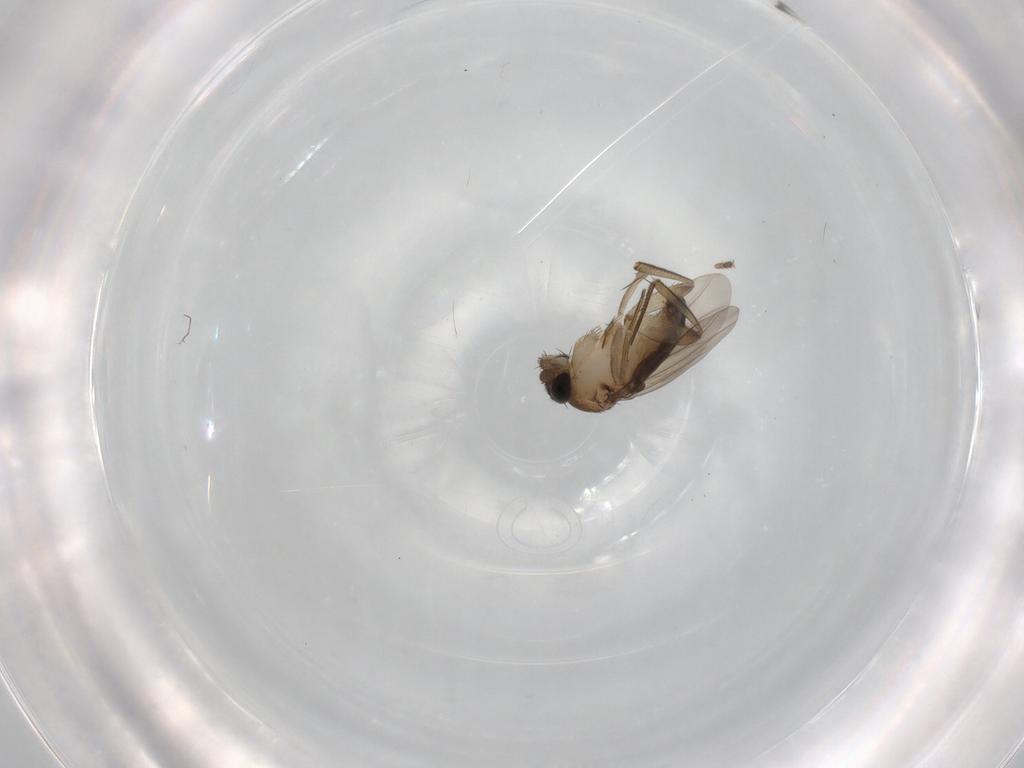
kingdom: Animalia
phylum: Arthropoda
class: Insecta
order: Diptera
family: Phoridae
